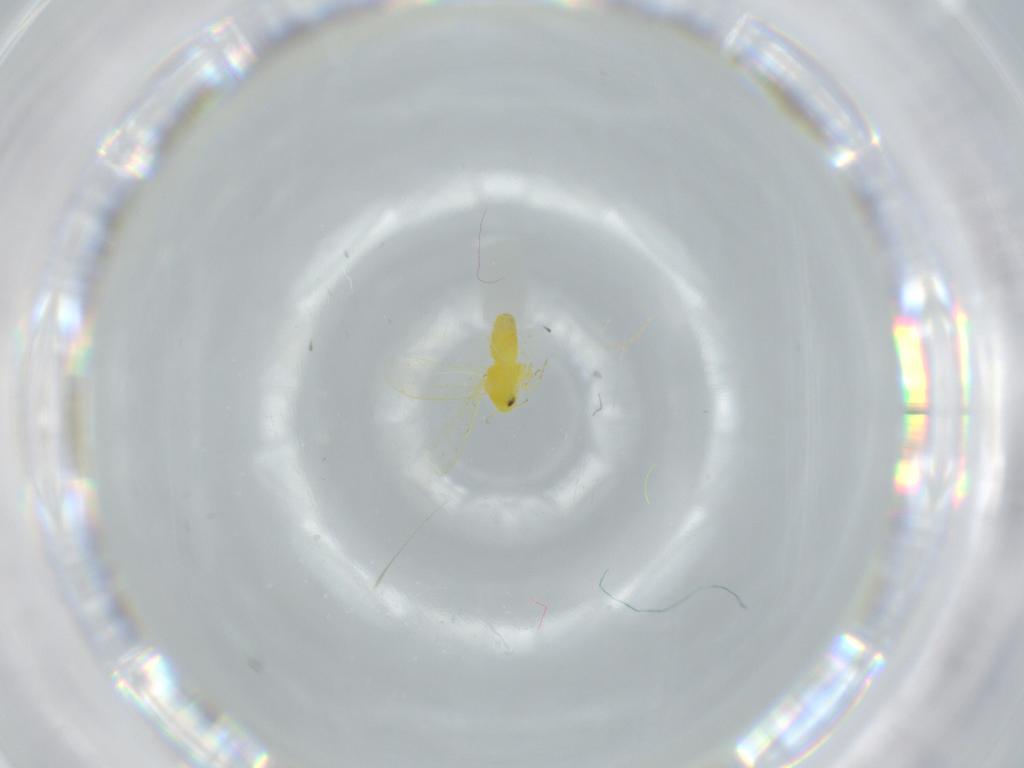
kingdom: Animalia
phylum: Arthropoda
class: Insecta
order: Hemiptera
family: Aleyrodidae
